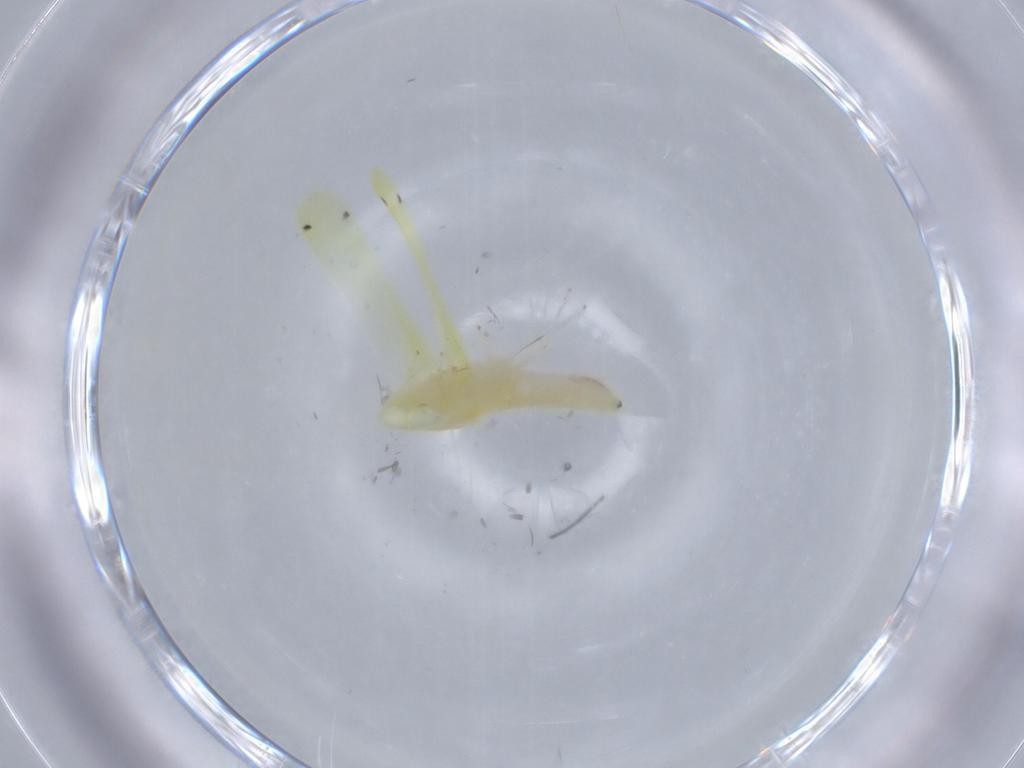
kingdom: Animalia
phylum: Arthropoda
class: Insecta
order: Hemiptera
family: Cicadellidae
